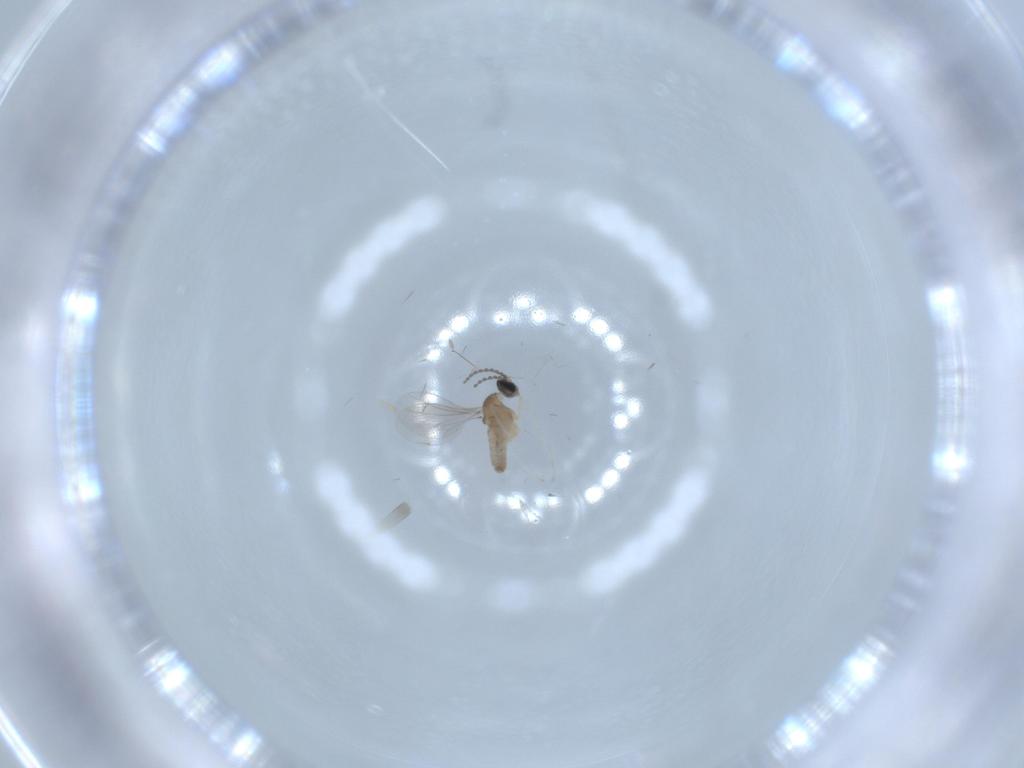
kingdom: Animalia
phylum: Arthropoda
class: Insecta
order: Diptera
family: Cecidomyiidae
